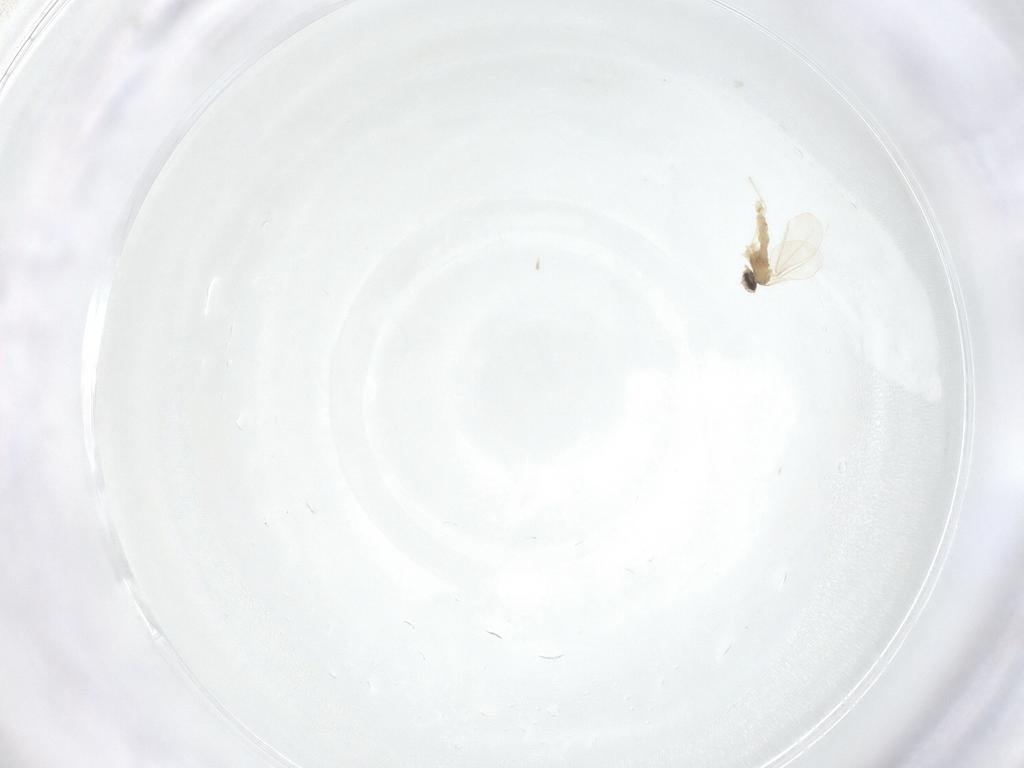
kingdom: Animalia
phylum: Arthropoda
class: Insecta
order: Diptera
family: Cecidomyiidae
